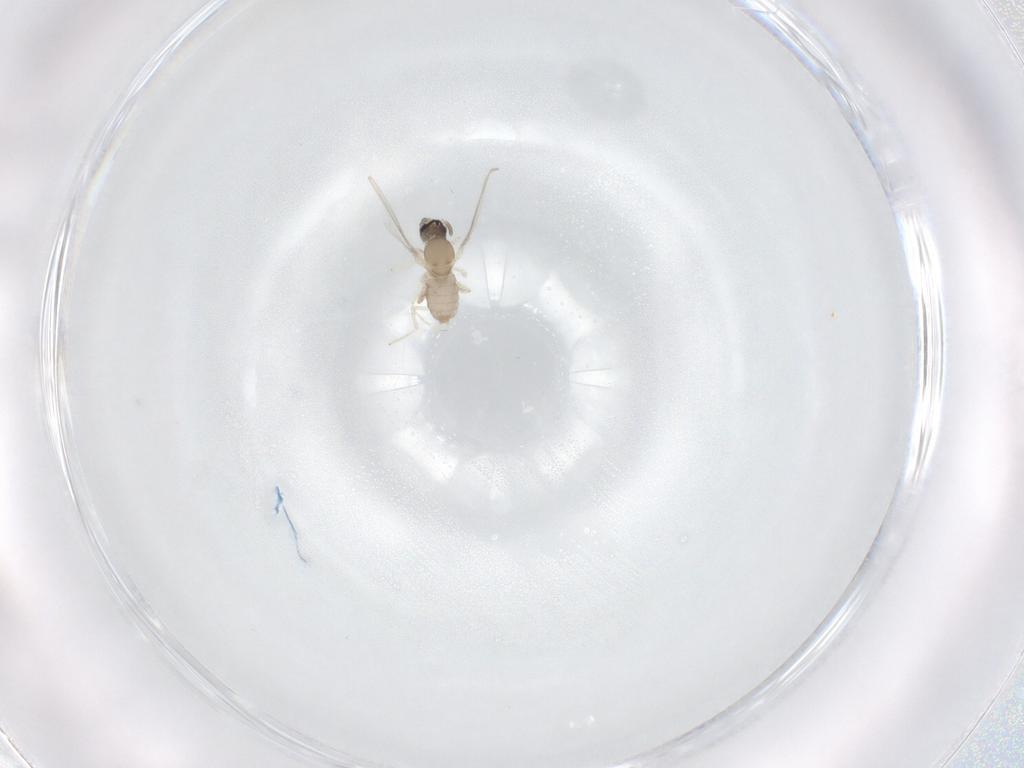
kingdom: Animalia
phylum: Arthropoda
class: Insecta
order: Diptera
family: Cecidomyiidae
